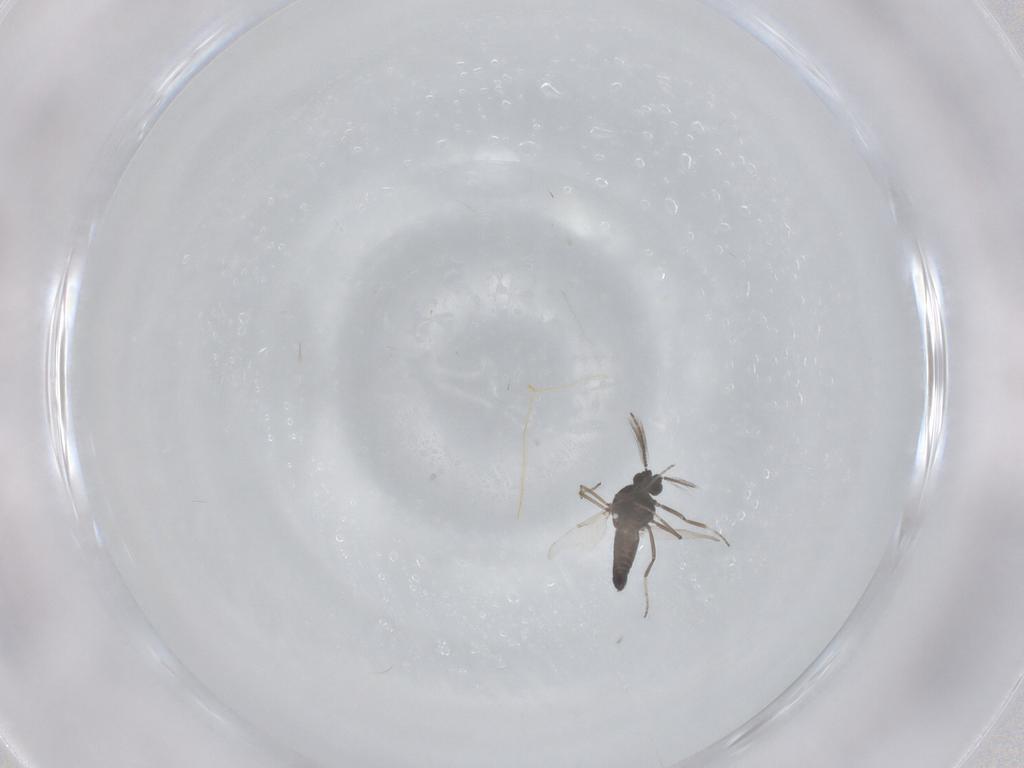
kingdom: Animalia
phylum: Arthropoda
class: Insecta
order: Diptera
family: Ceratopogonidae
